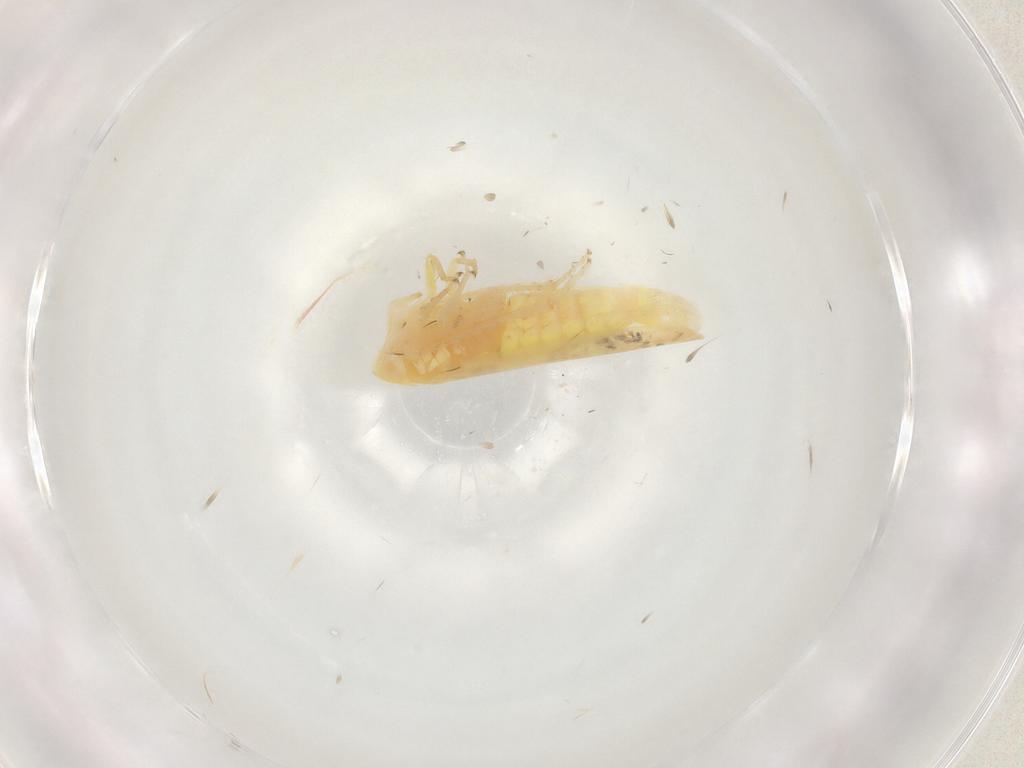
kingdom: Animalia
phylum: Arthropoda
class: Insecta
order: Hemiptera
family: Cicadellidae
